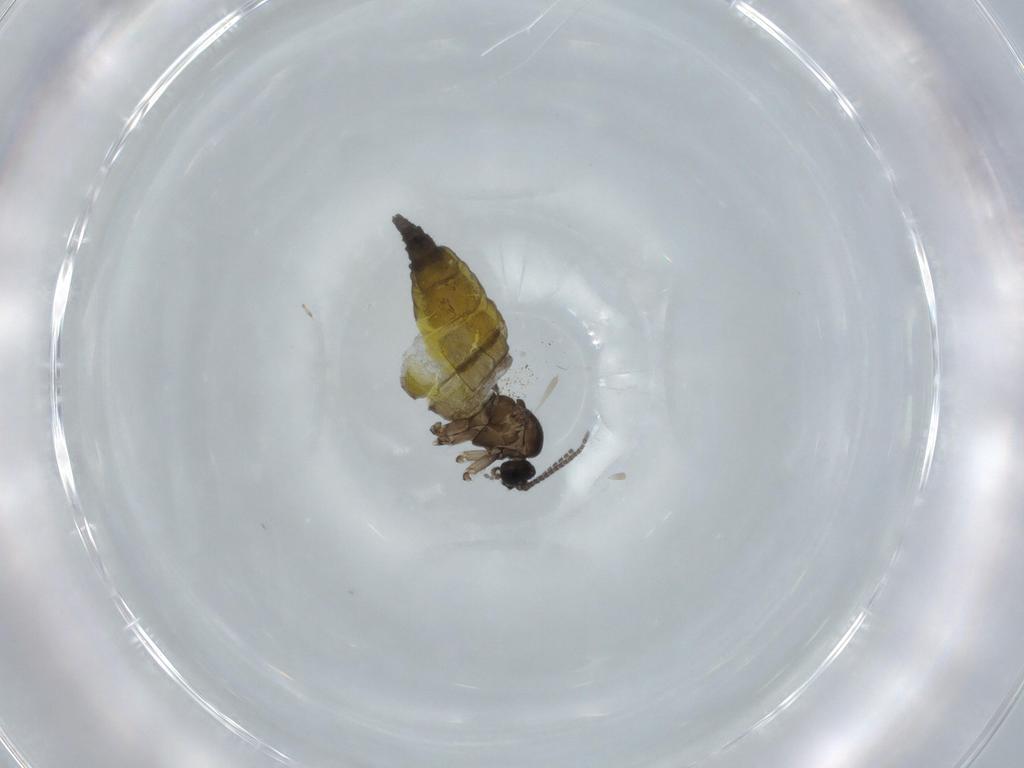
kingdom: Animalia
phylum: Arthropoda
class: Insecta
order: Diptera
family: Sciaridae
